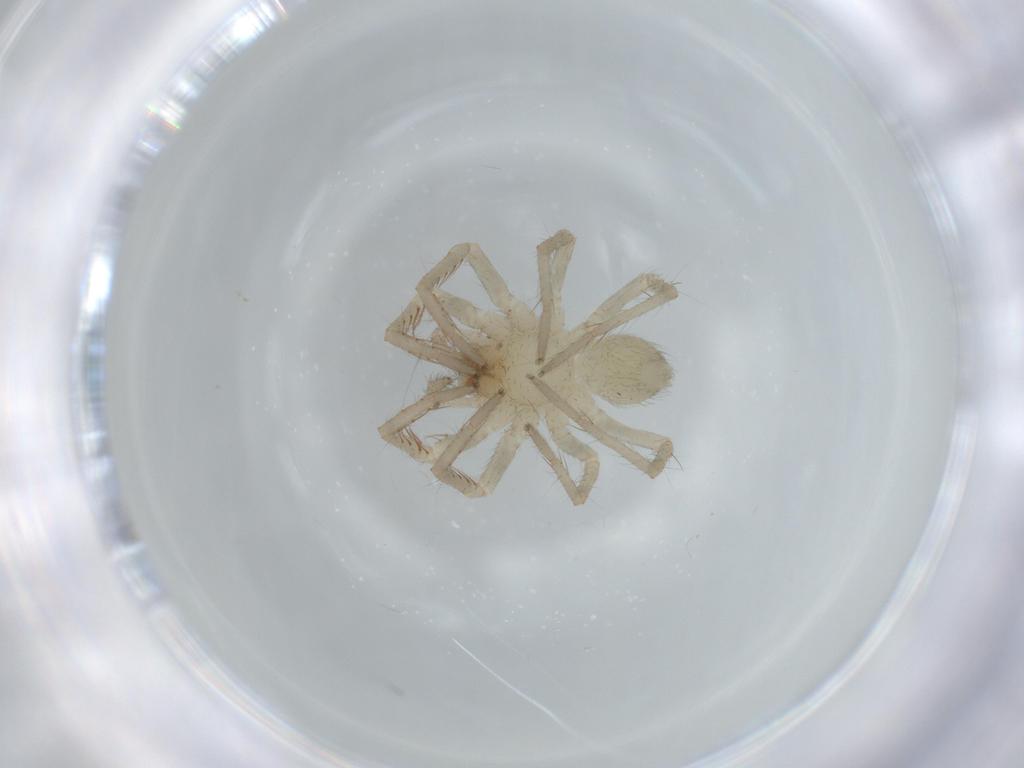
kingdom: Animalia
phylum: Arthropoda
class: Arachnida
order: Araneae
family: Ctenidae
